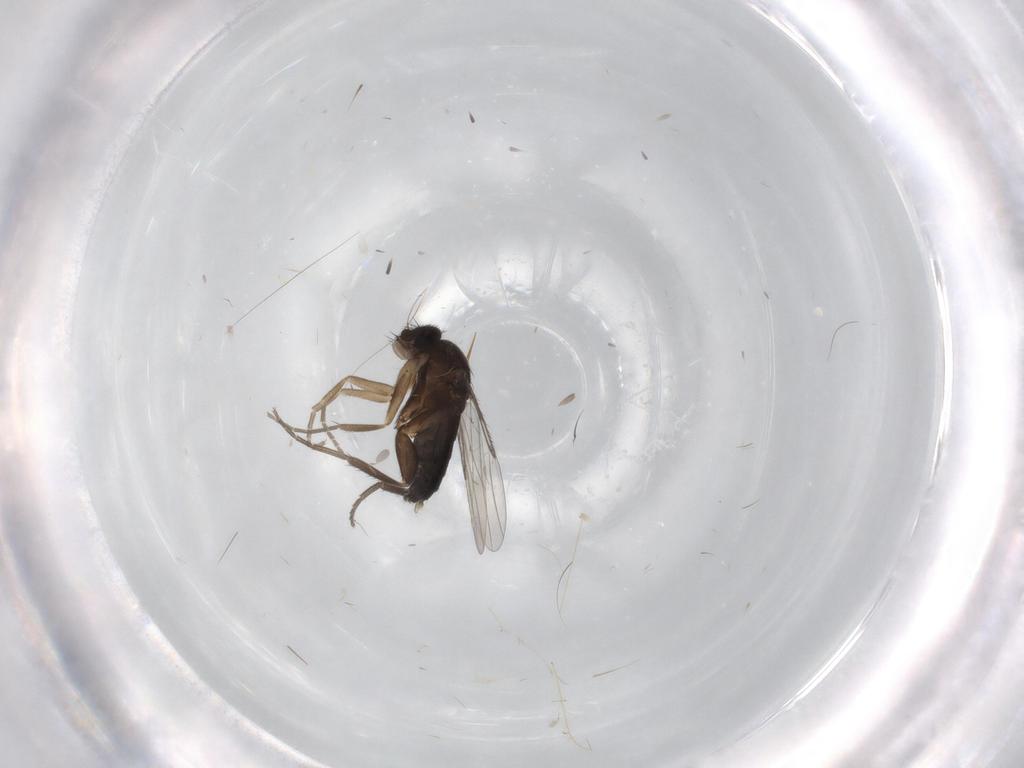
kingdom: Animalia
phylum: Arthropoda
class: Insecta
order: Diptera
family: Phoridae
